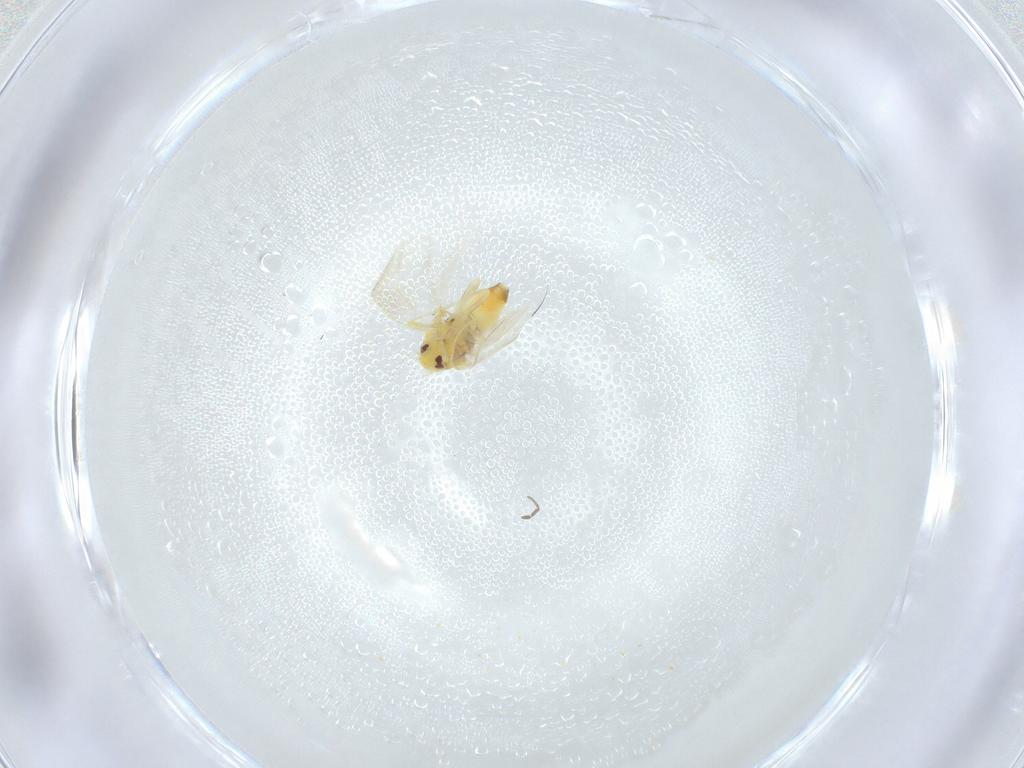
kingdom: Animalia
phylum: Arthropoda
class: Insecta
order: Hemiptera
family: Aleyrodidae
